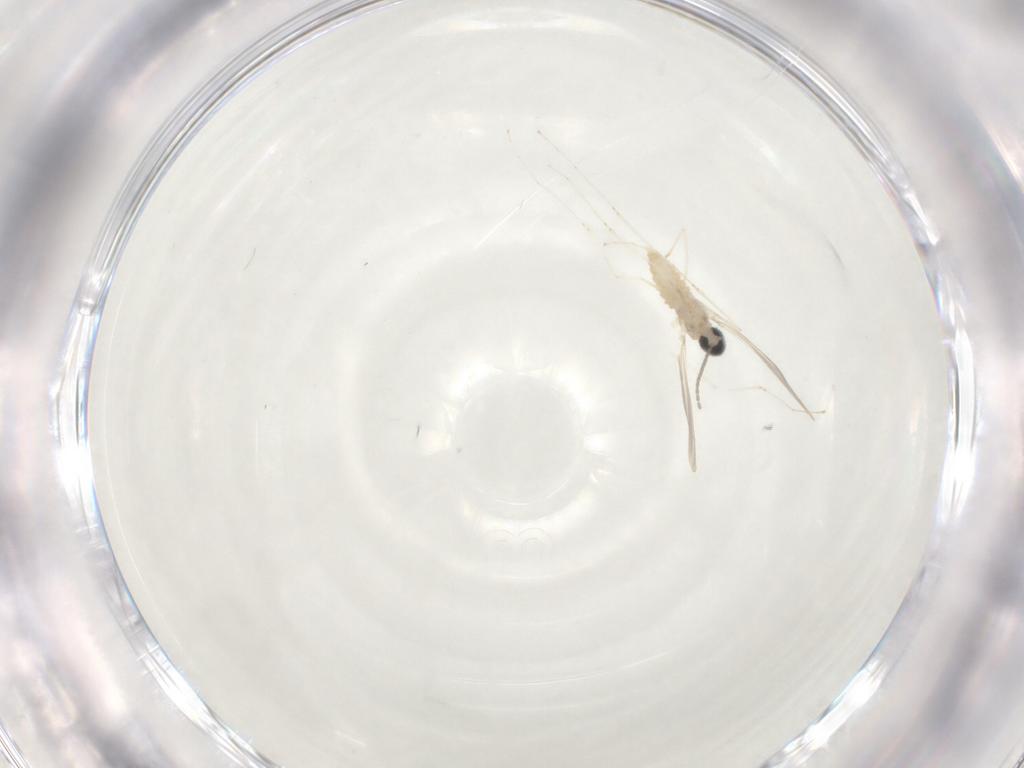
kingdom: Animalia
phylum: Arthropoda
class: Insecta
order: Diptera
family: Cecidomyiidae
